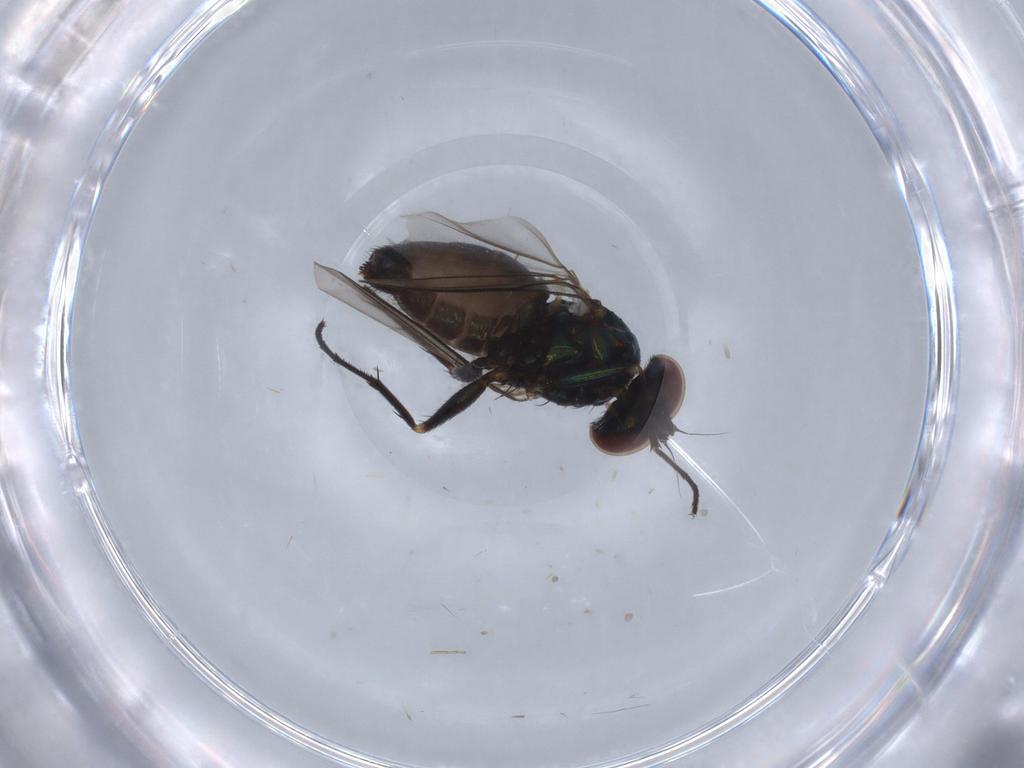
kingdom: Animalia
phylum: Arthropoda
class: Insecta
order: Diptera
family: Dolichopodidae
